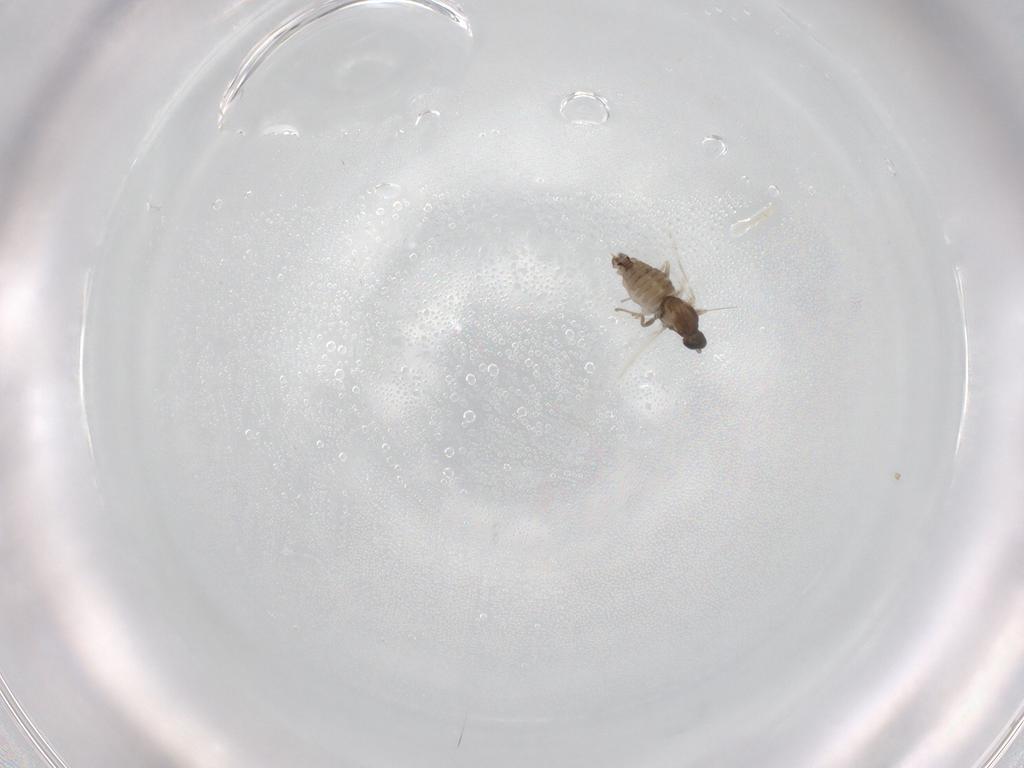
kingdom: Animalia
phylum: Arthropoda
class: Insecta
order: Diptera
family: Cecidomyiidae
